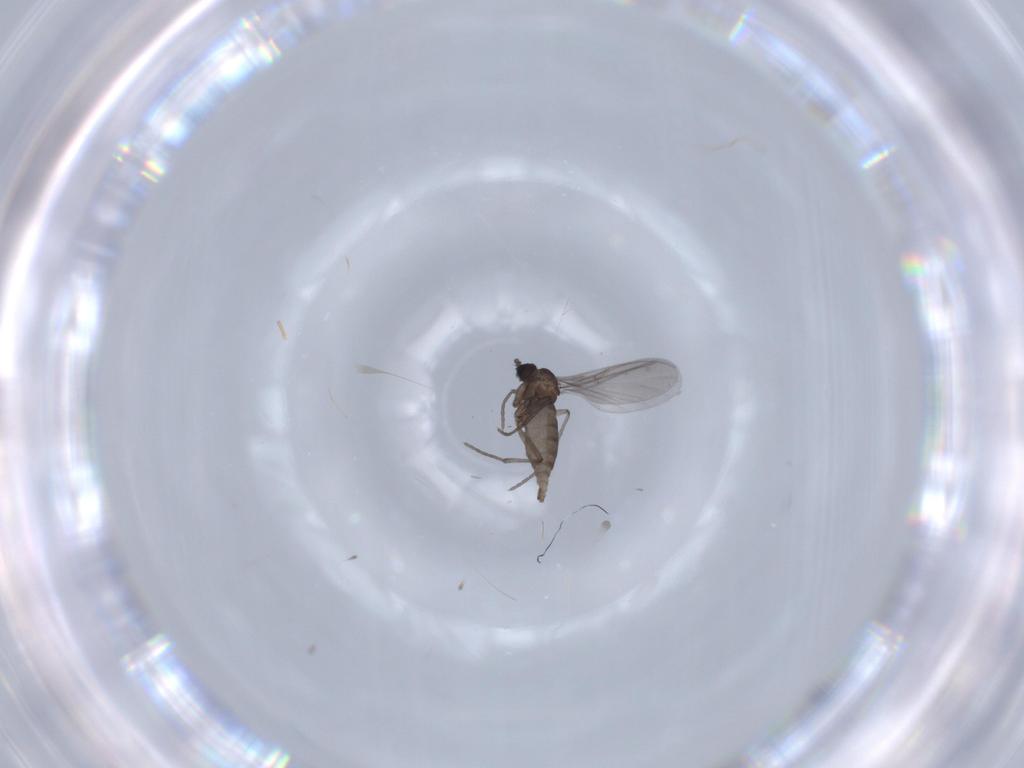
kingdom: Animalia
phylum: Arthropoda
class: Insecta
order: Diptera
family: Sciaridae
